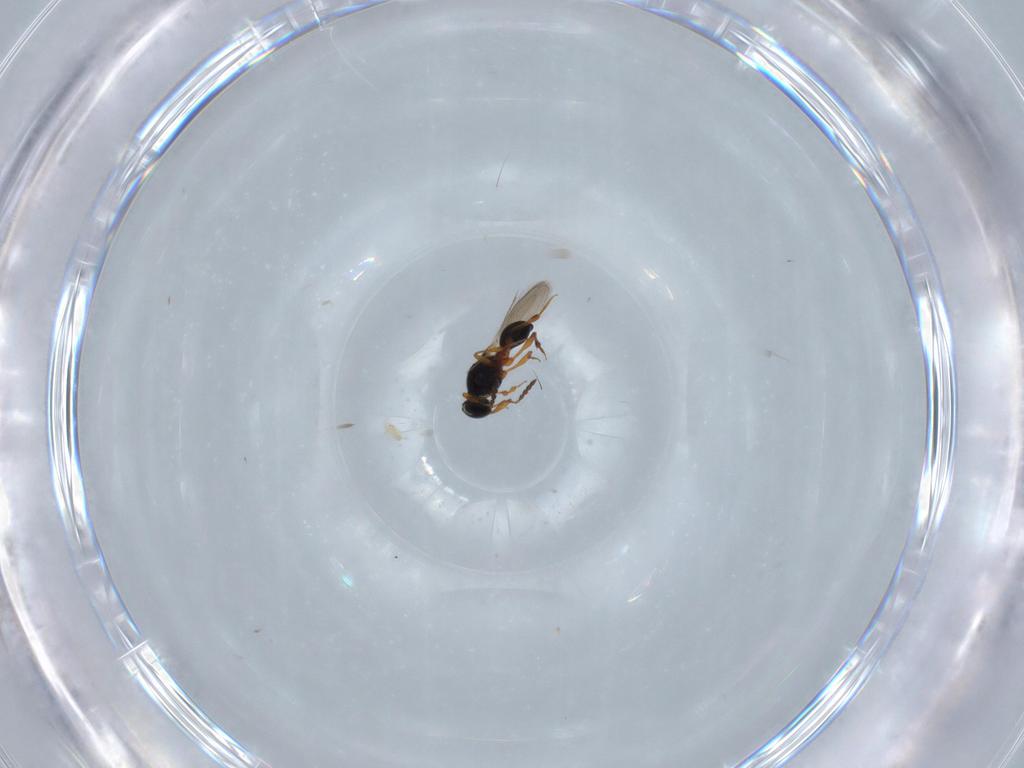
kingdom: Animalia
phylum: Arthropoda
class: Insecta
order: Hymenoptera
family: Formicidae
